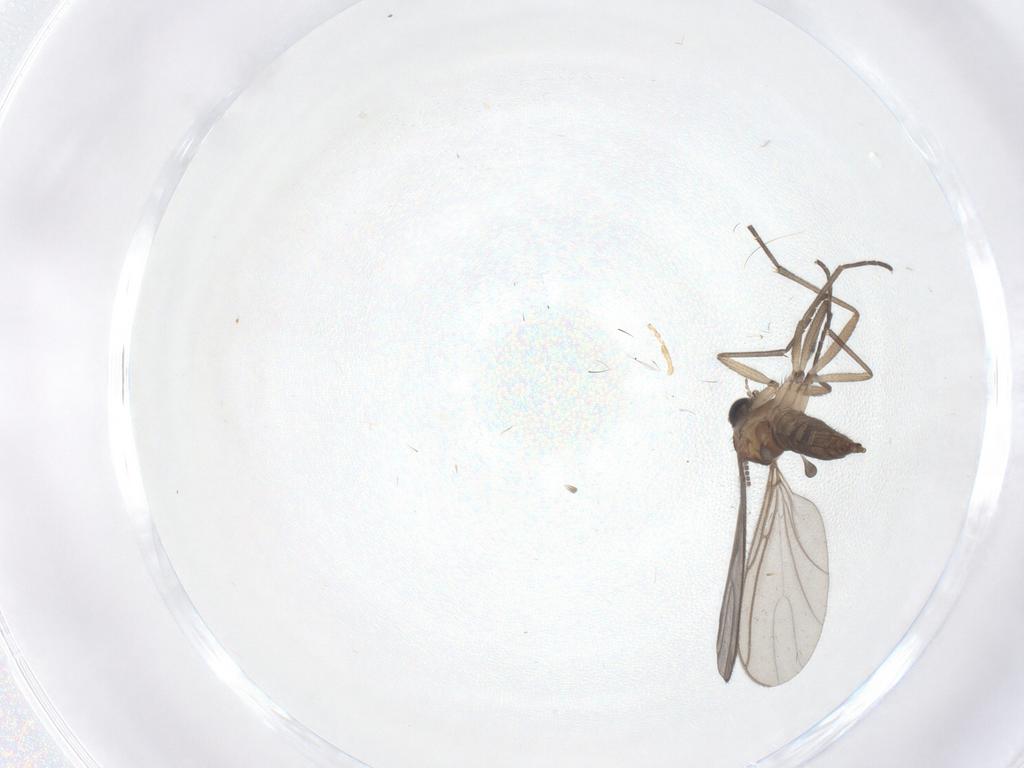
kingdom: Animalia
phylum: Arthropoda
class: Insecta
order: Diptera
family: Sciaridae
